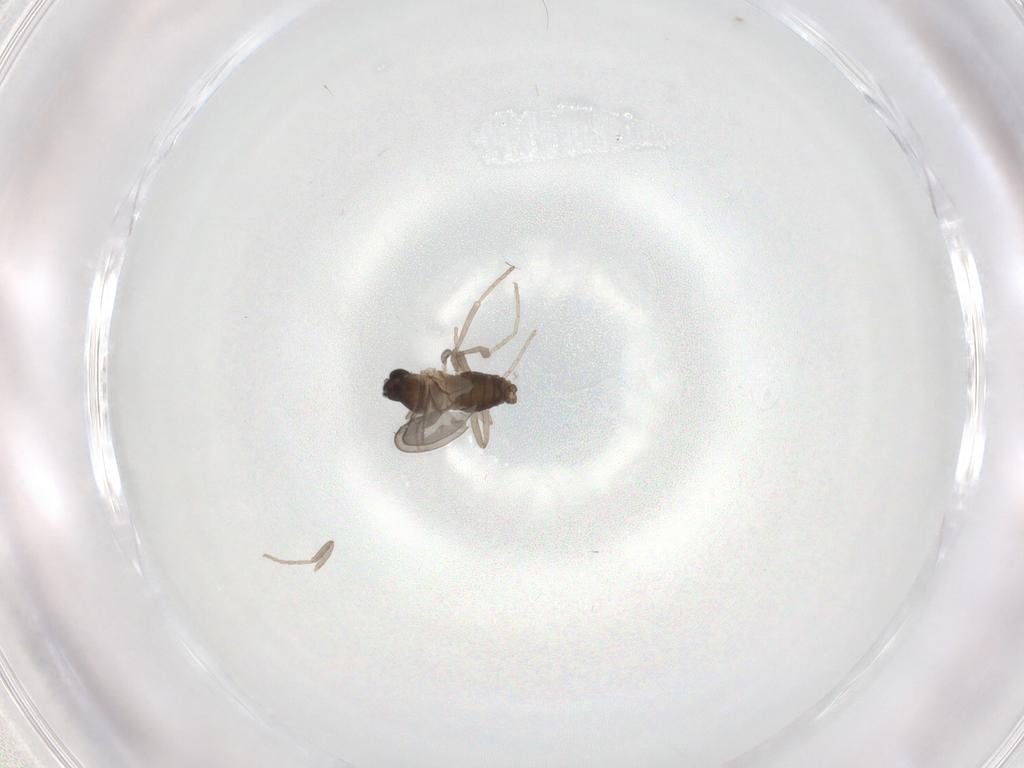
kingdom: Animalia
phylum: Arthropoda
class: Insecta
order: Diptera
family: Cecidomyiidae
